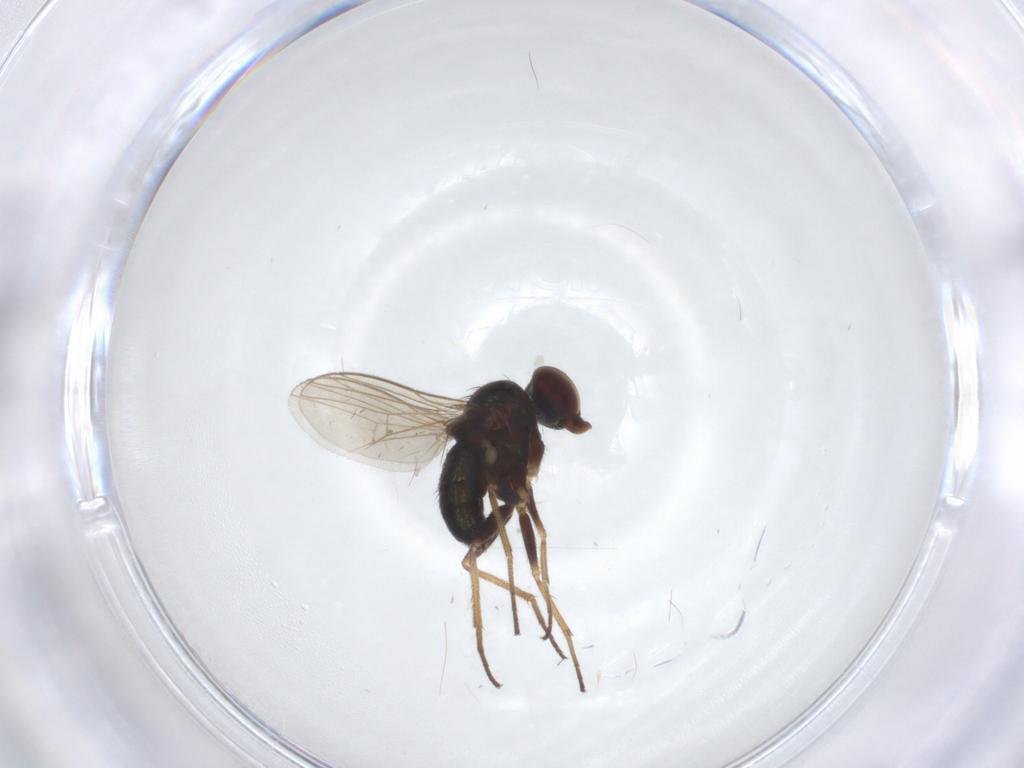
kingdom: Animalia
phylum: Arthropoda
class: Insecta
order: Diptera
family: Dolichopodidae
